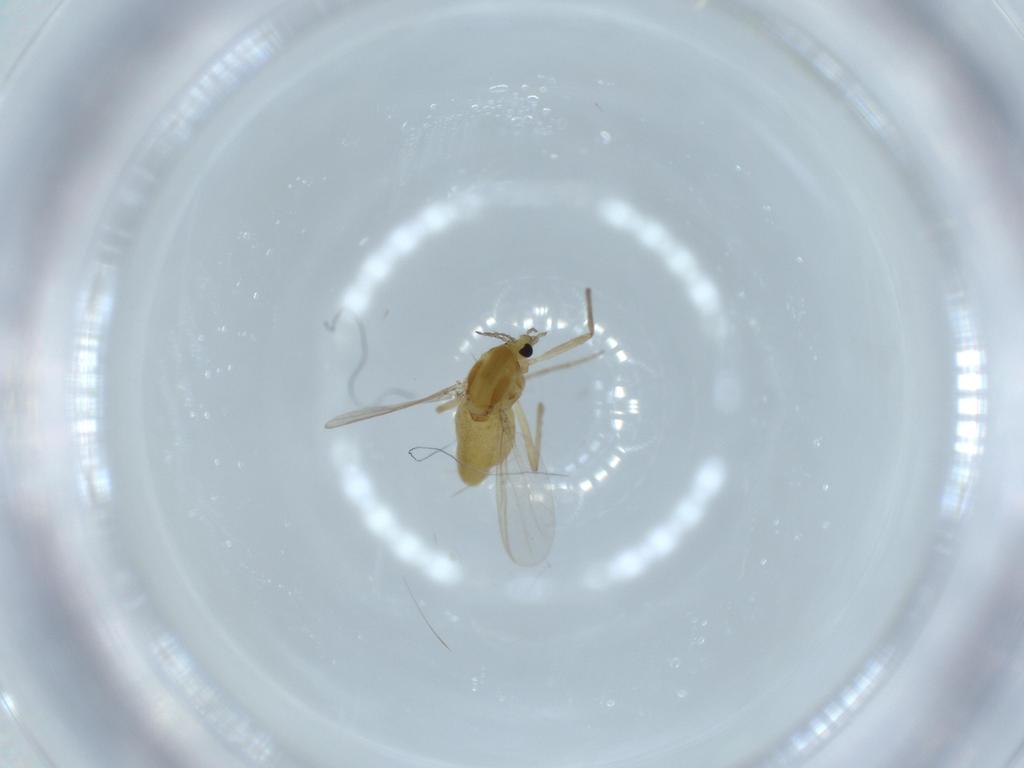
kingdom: Animalia
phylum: Arthropoda
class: Insecta
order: Diptera
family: Chironomidae
